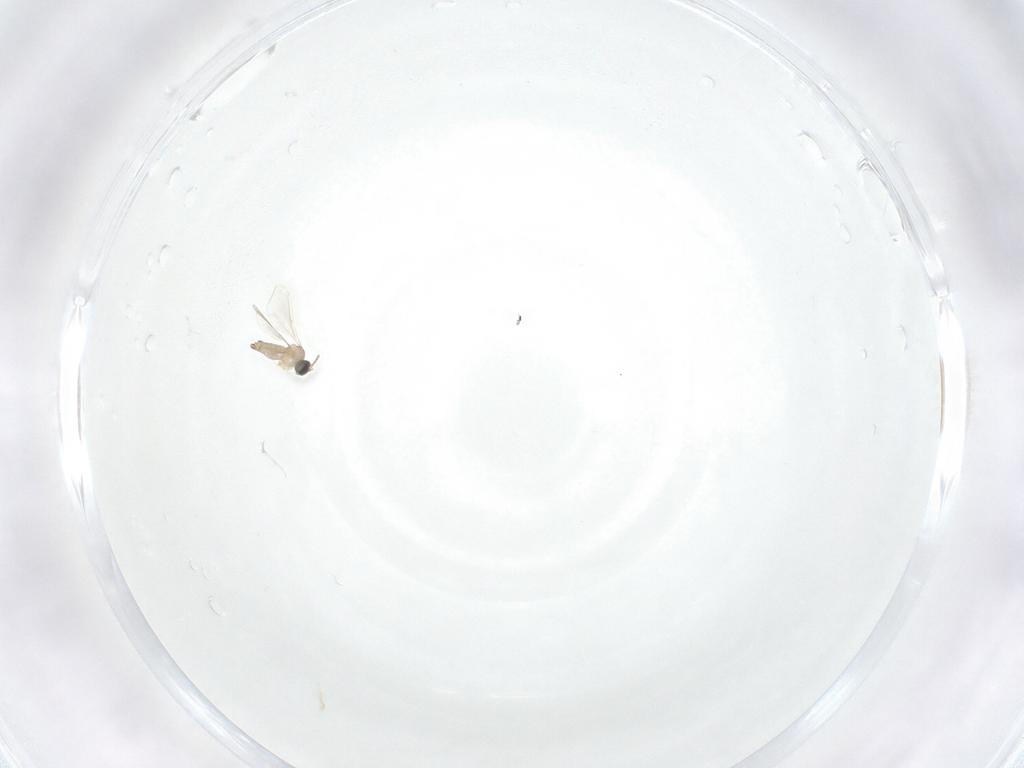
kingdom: Animalia
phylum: Arthropoda
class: Insecta
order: Diptera
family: Cecidomyiidae
